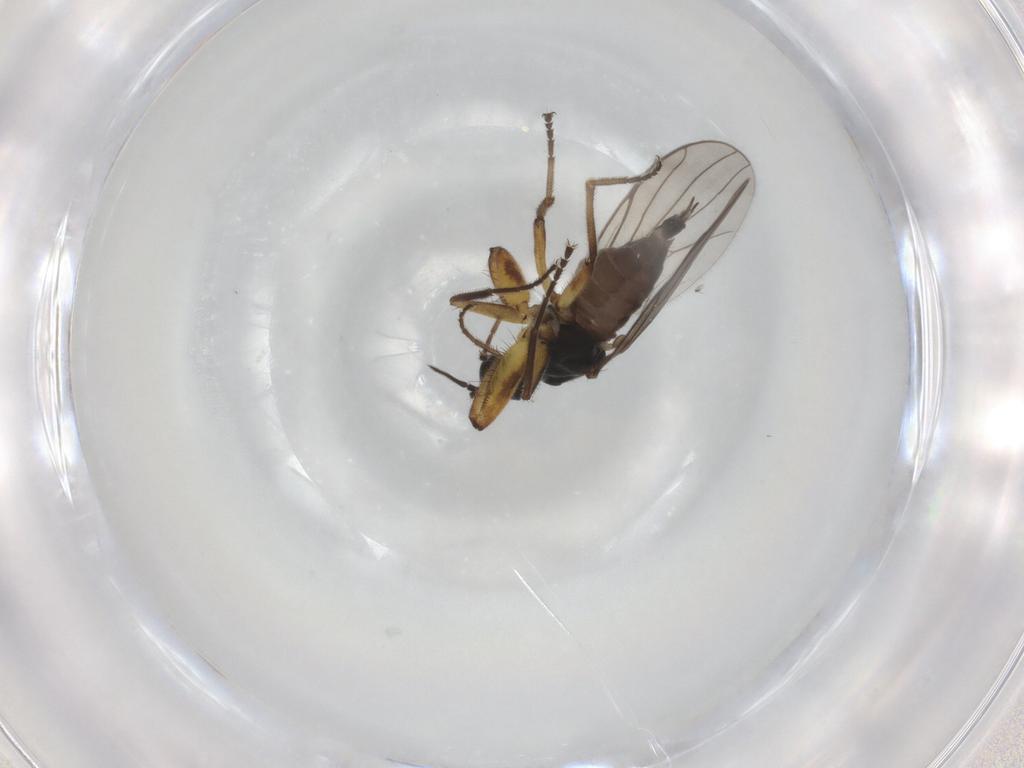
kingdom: Animalia
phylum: Arthropoda
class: Insecta
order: Diptera
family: Hybotidae
